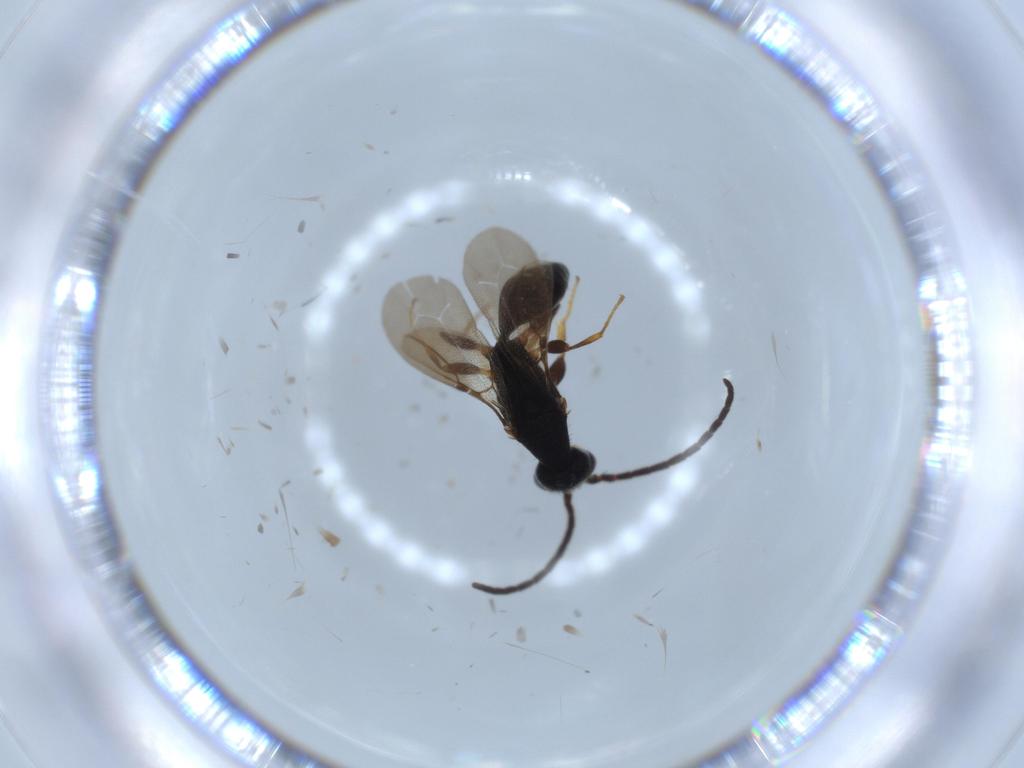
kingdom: Animalia
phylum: Arthropoda
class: Insecta
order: Hymenoptera
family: Bethylidae
